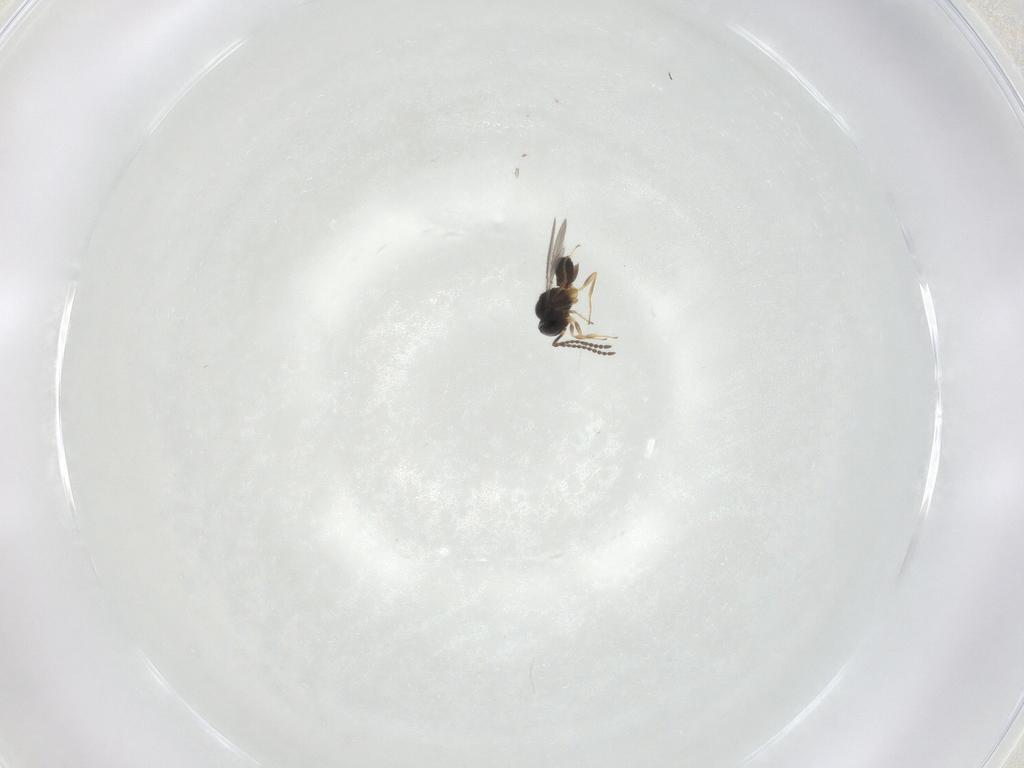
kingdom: Animalia
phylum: Arthropoda
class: Insecta
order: Hymenoptera
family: Scelionidae
